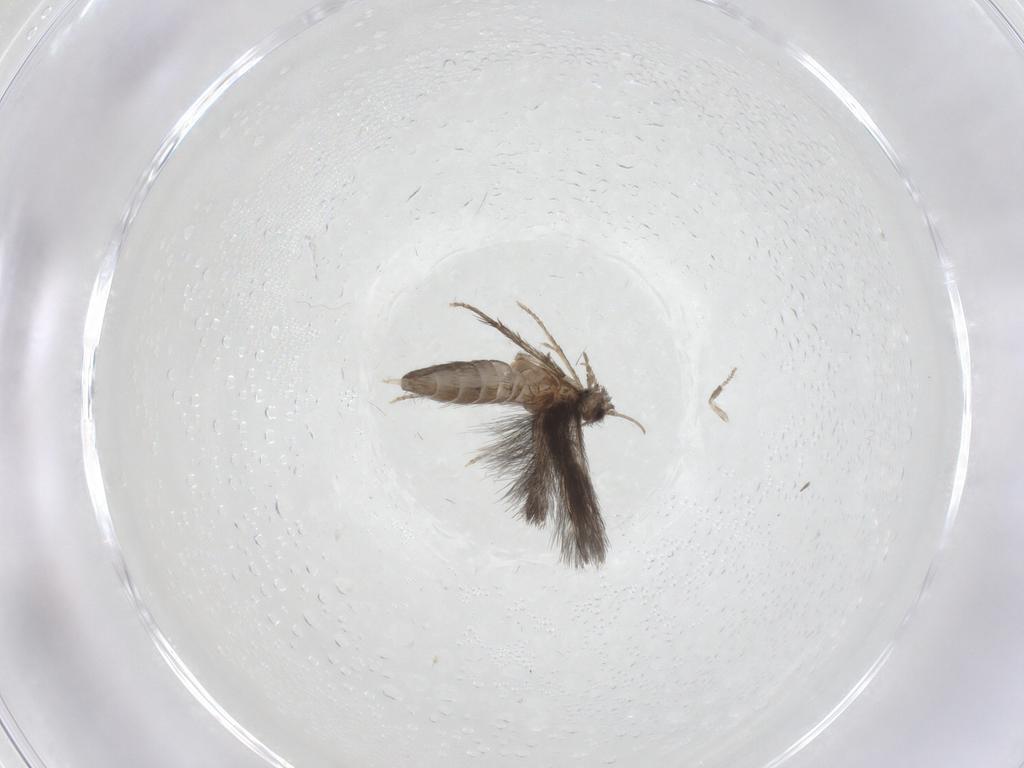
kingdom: Animalia
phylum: Arthropoda
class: Insecta
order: Trichoptera
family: Hydroptilidae
